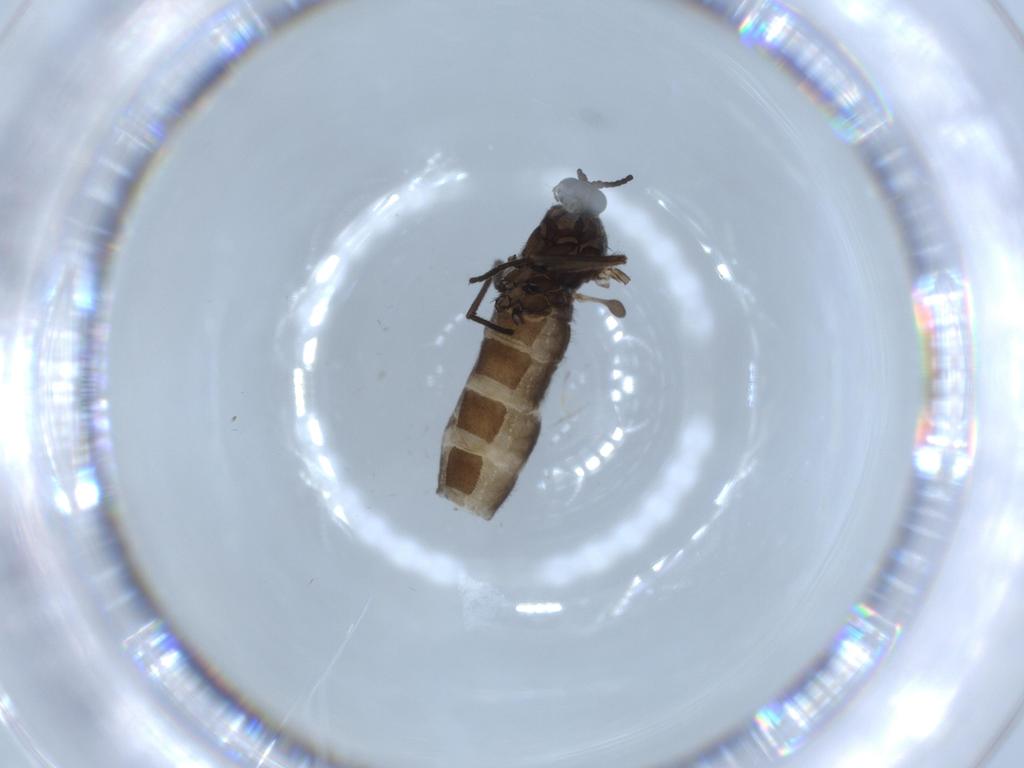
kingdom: Animalia
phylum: Arthropoda
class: Insecta
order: Diptera
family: Sciaridae
